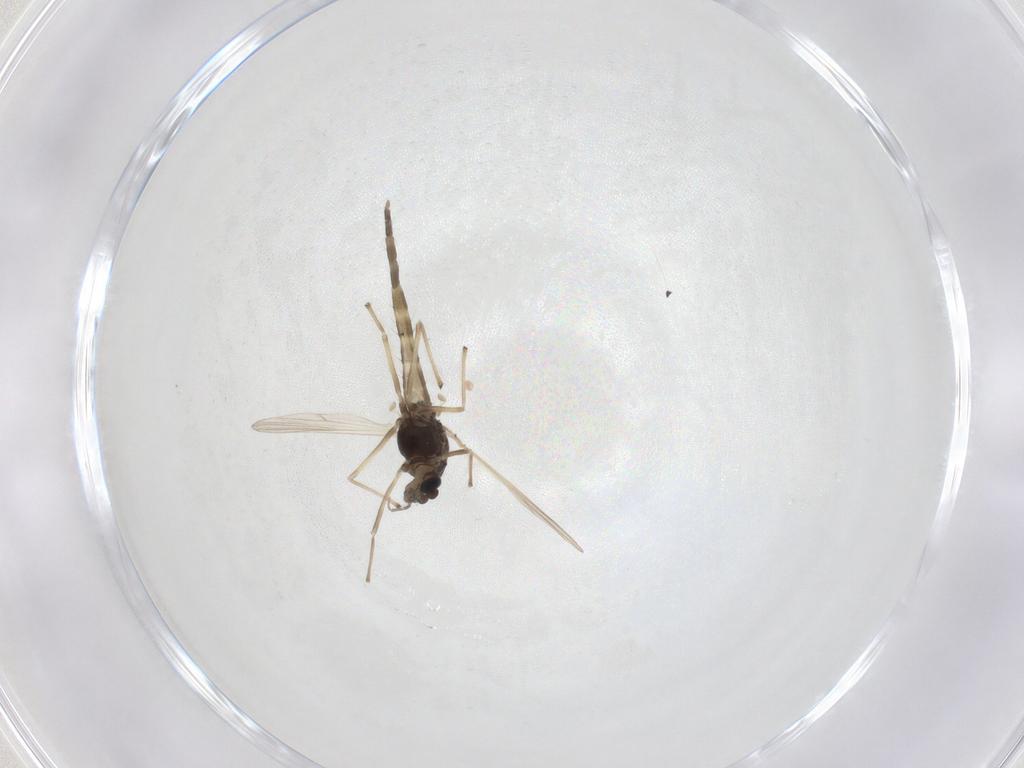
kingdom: Animalia
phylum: Arthropoda
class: Insecta
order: Diptera
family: Chironomidae
